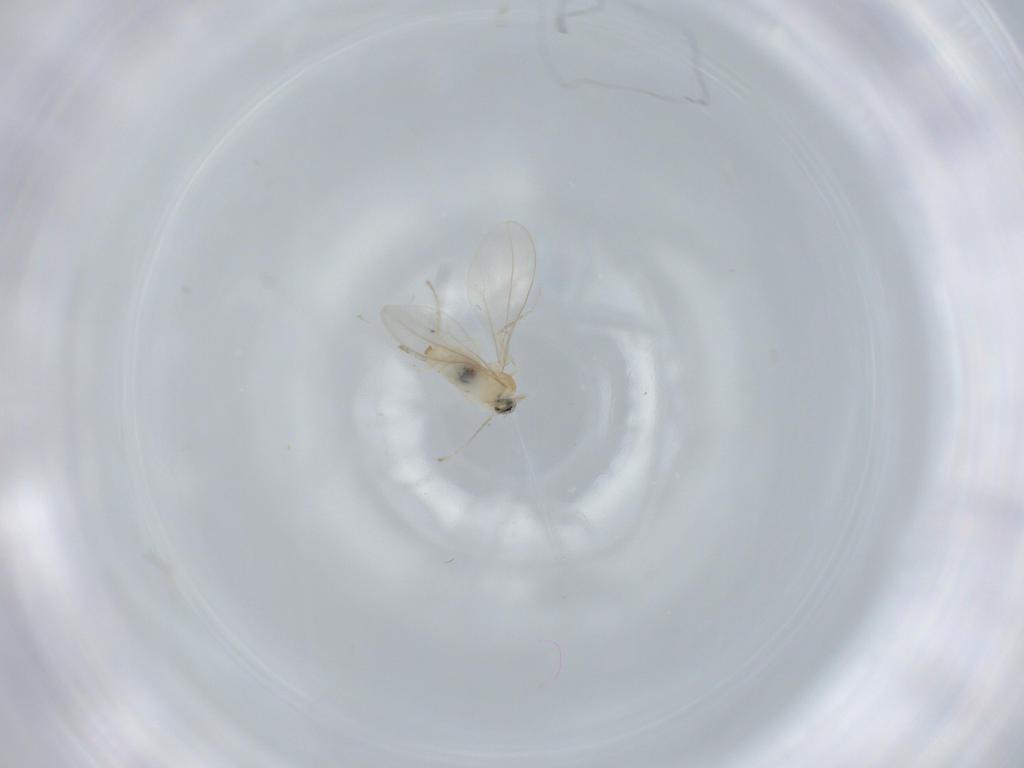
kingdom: Animalia
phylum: Arthropoda
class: Insecta
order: Diptera
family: Cecidomyiidae
